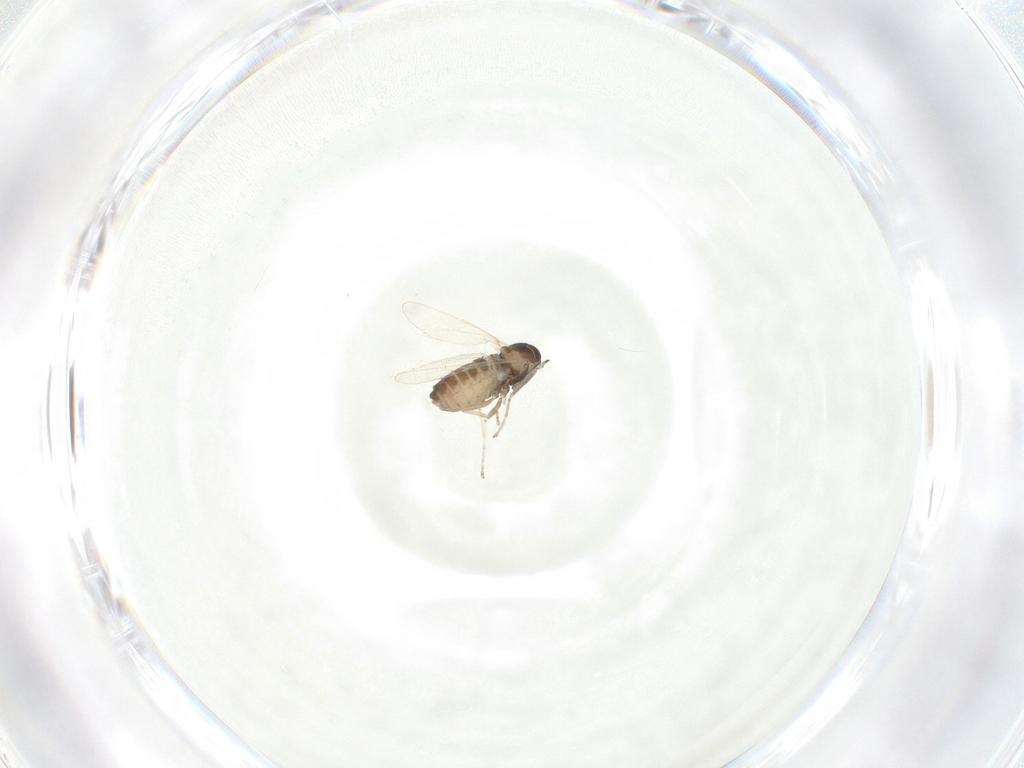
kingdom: Animalia
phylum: Arthropoda
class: Insecta
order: Diptera
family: Cecidomyiidae
